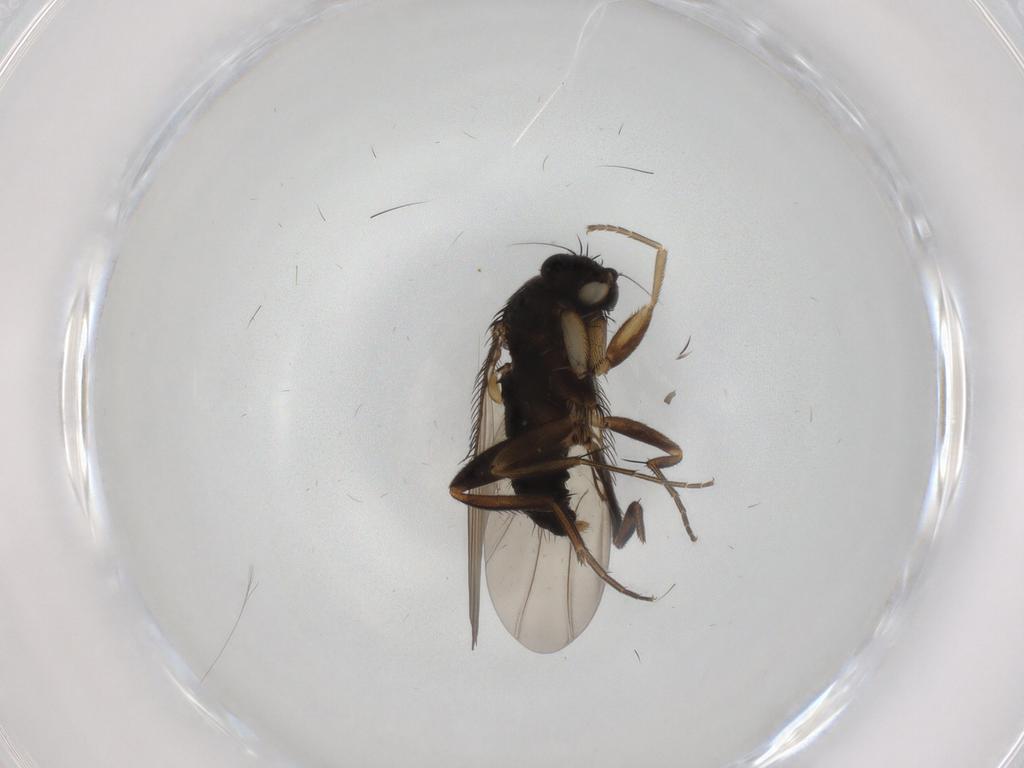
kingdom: Animalia
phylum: Arthropoda
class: Insecta
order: Diptera
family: Phoridae
